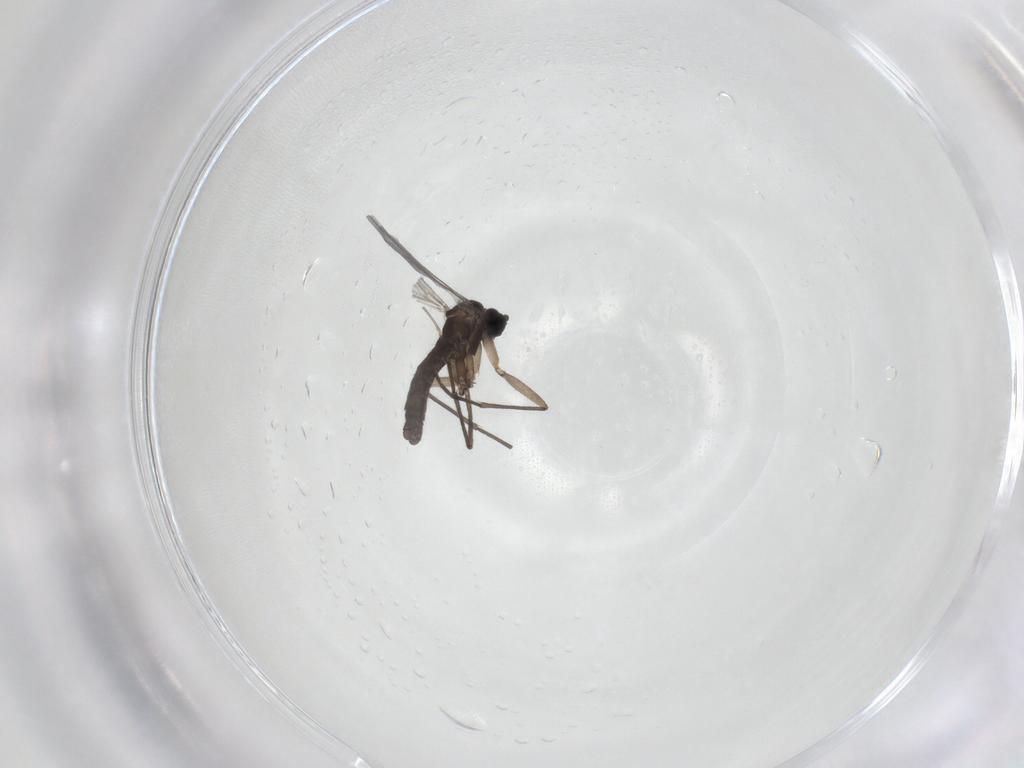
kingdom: Animalia
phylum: Arthropoda
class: Insecta
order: Diptera
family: Sciaridae
